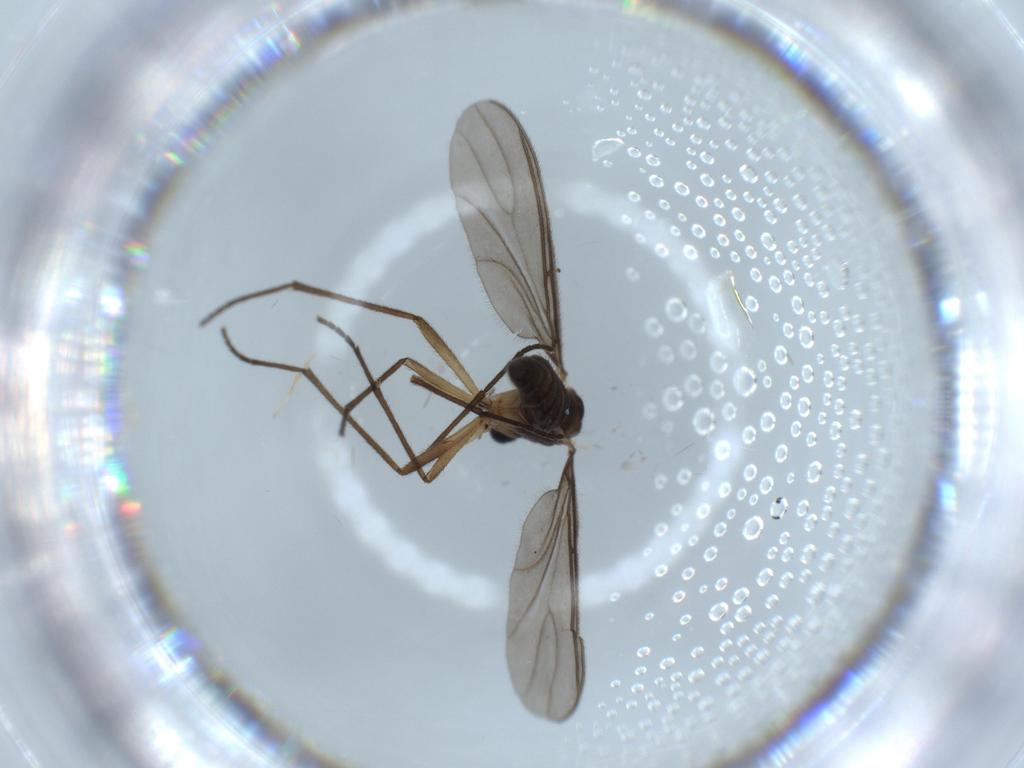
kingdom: Animalia
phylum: Arthropoda
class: Insecta
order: Diptera
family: Sciaridae
